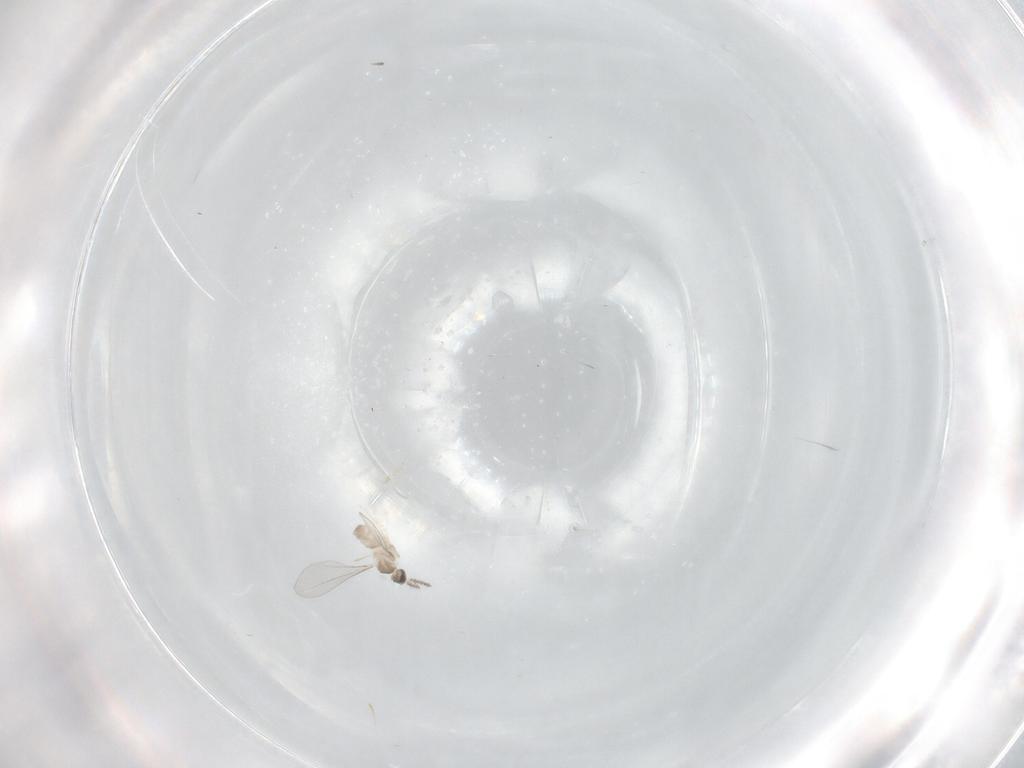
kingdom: Animalia
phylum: Arthropoda
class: Insecta
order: Diptera
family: Cecidomyiidae
